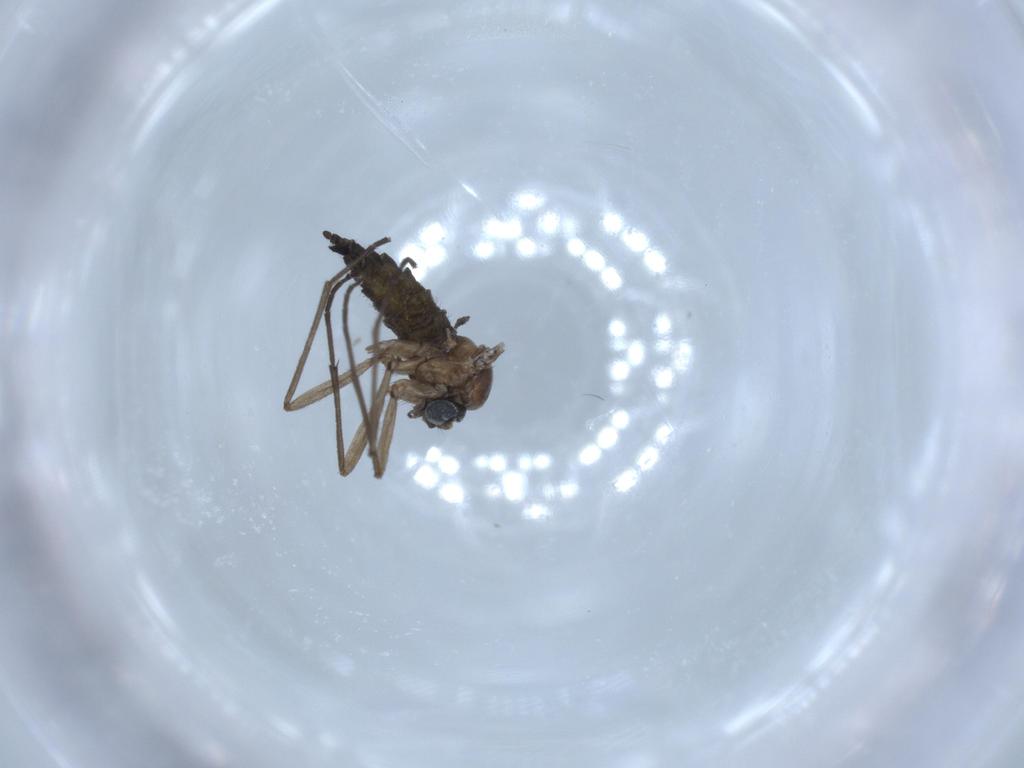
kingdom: Animalia
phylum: Arthropoda
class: Insecta
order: Diptera
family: Sciaridae
